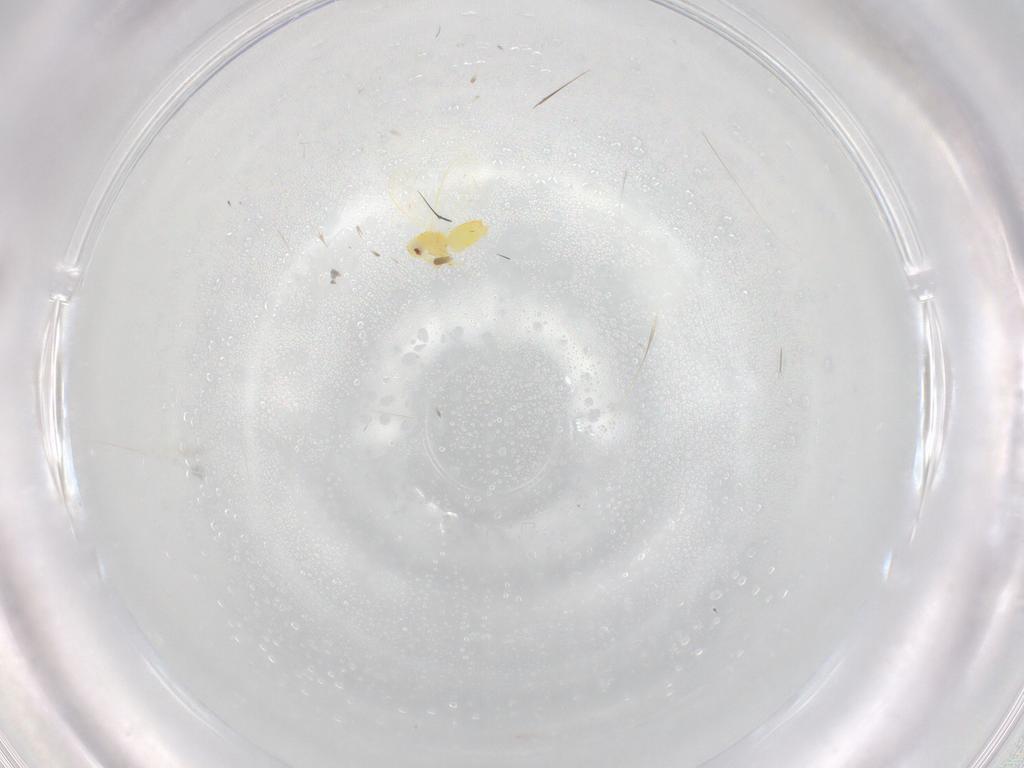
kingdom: Animalia
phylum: Arthropoda
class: Insecta
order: Hemiptera
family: Aleyrodidae
